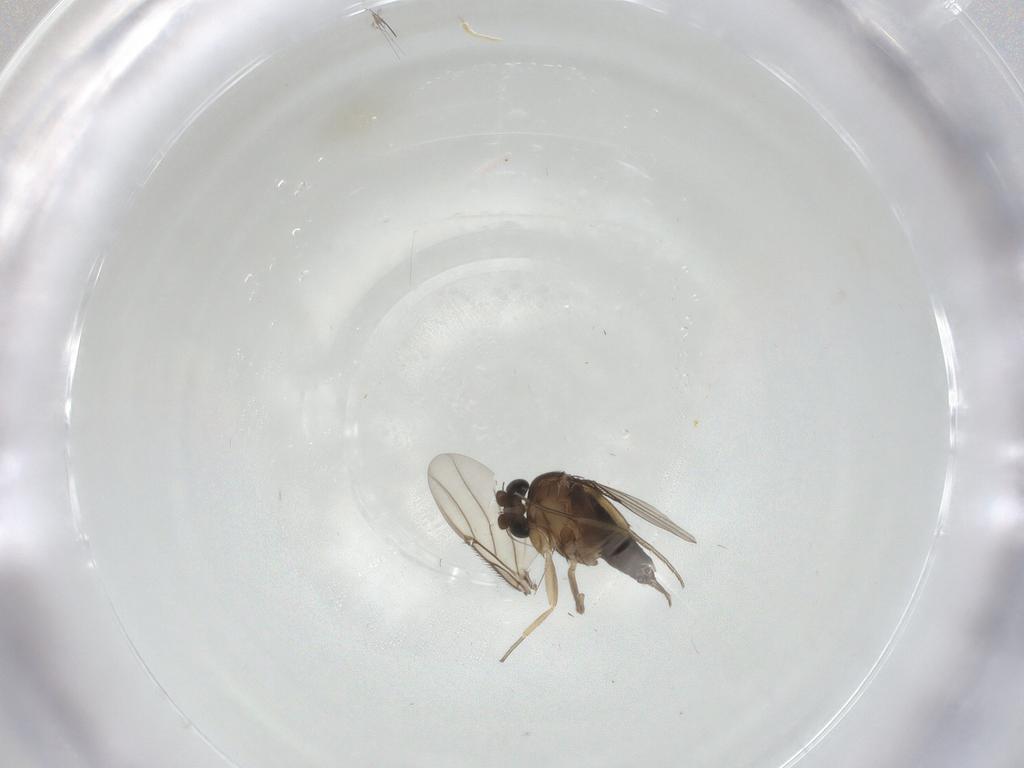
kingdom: Animalia
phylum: Arthropoda
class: Insecta
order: Diptera
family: Phoridae
